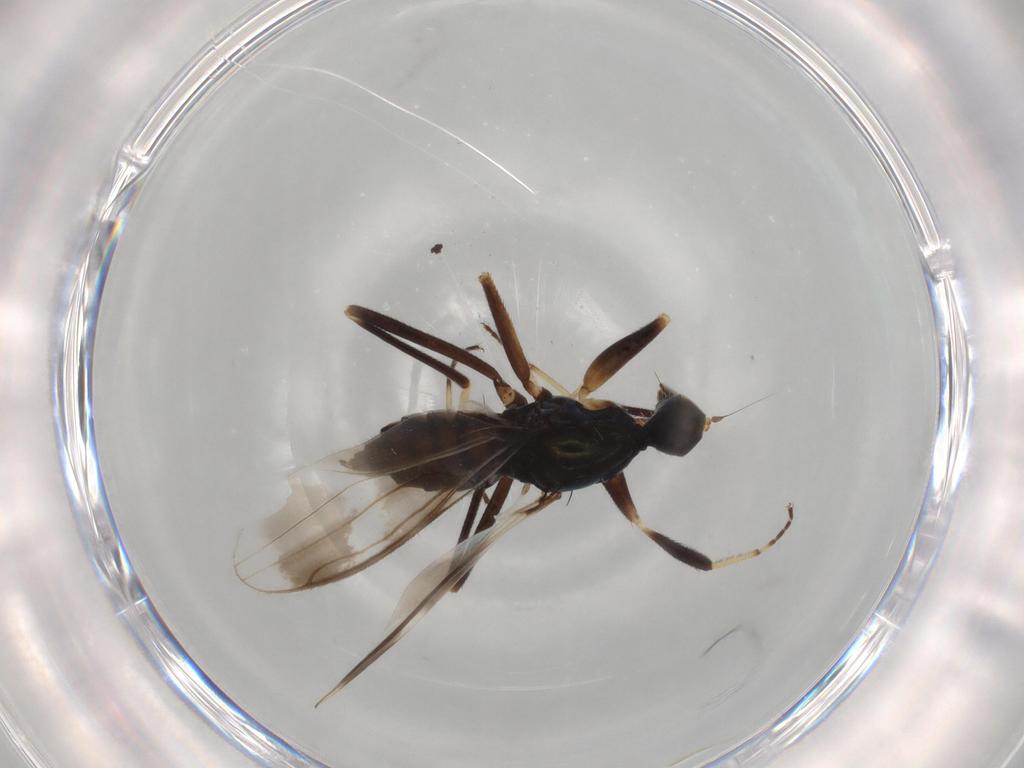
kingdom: Animalia
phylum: Arthropoda
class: Insecta
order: Diptera
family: Hybotidae
